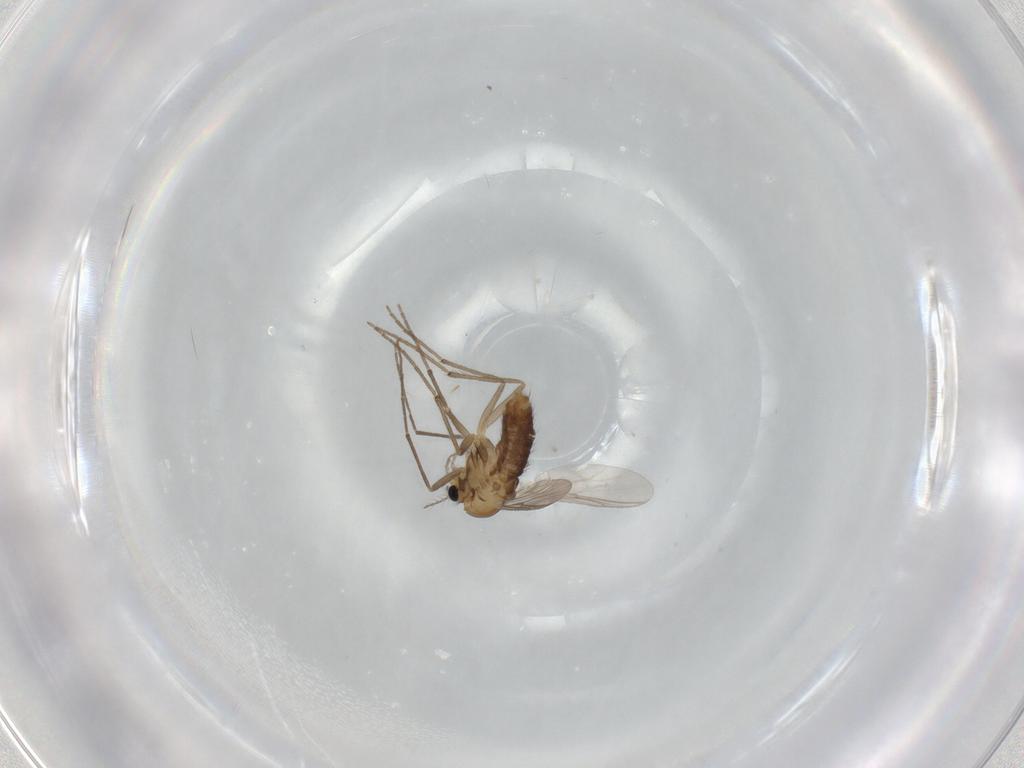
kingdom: Animalia
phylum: Arthropoda
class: Insecta
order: Diptera
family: Chironomidae
